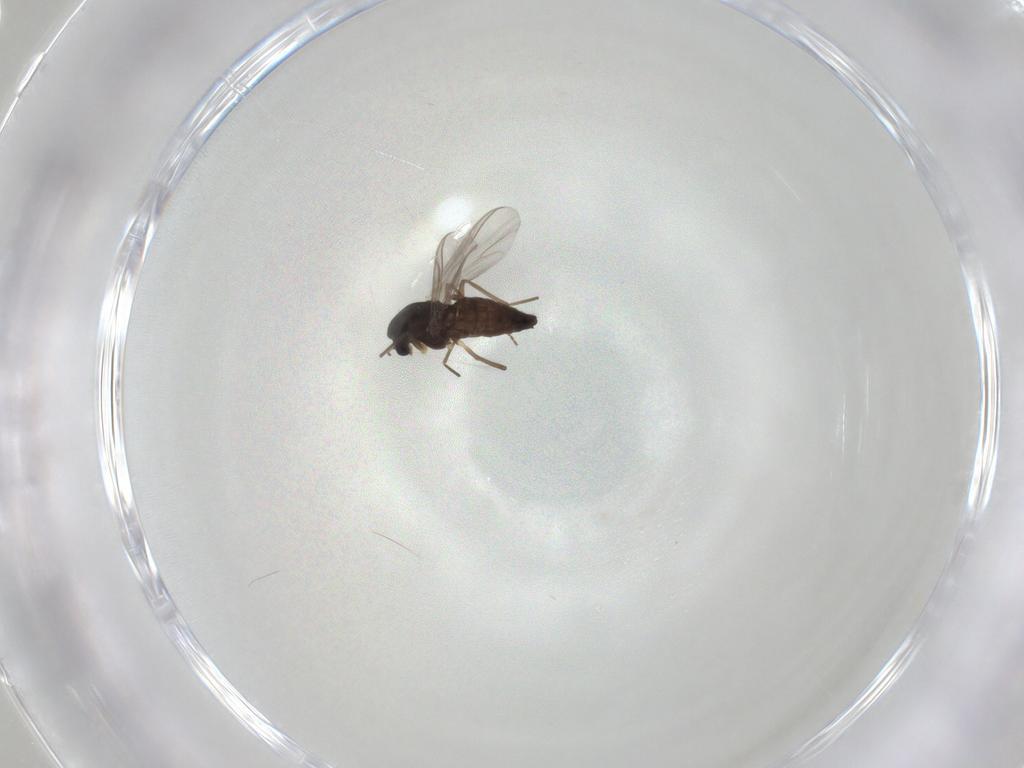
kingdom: Animalia
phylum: Arthropoda
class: Insecta
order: Diptera
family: Chironomidae
